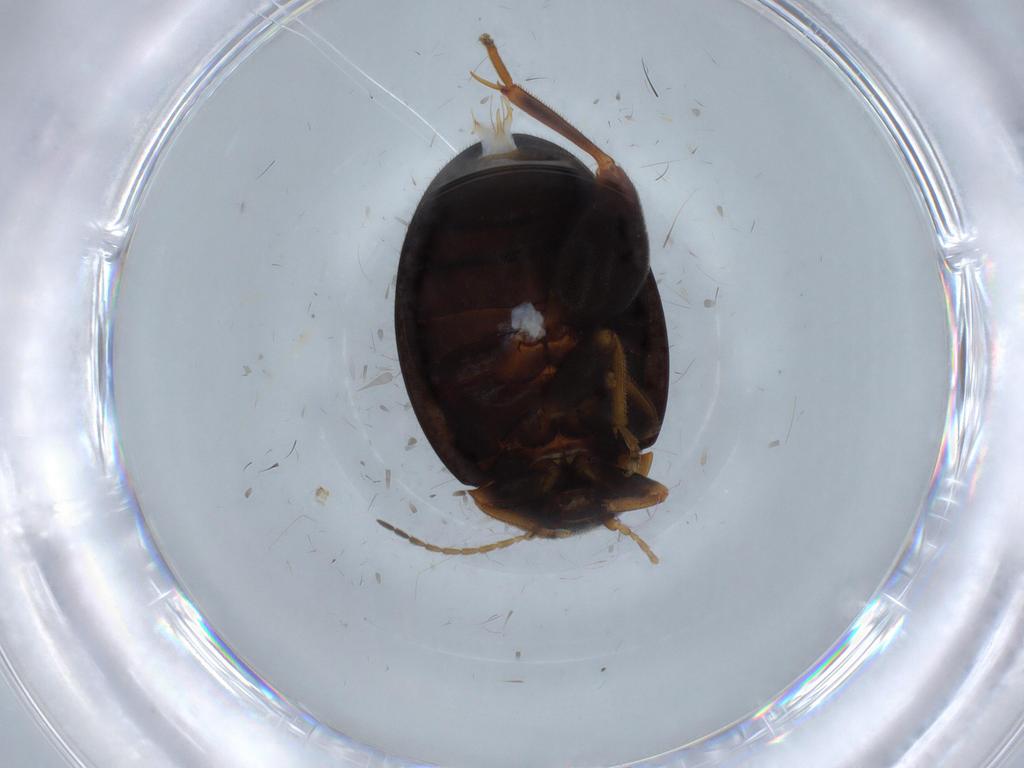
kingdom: Animalia
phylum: Arthropoda
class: Insecta
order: Coleoptera
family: Scirtidae
